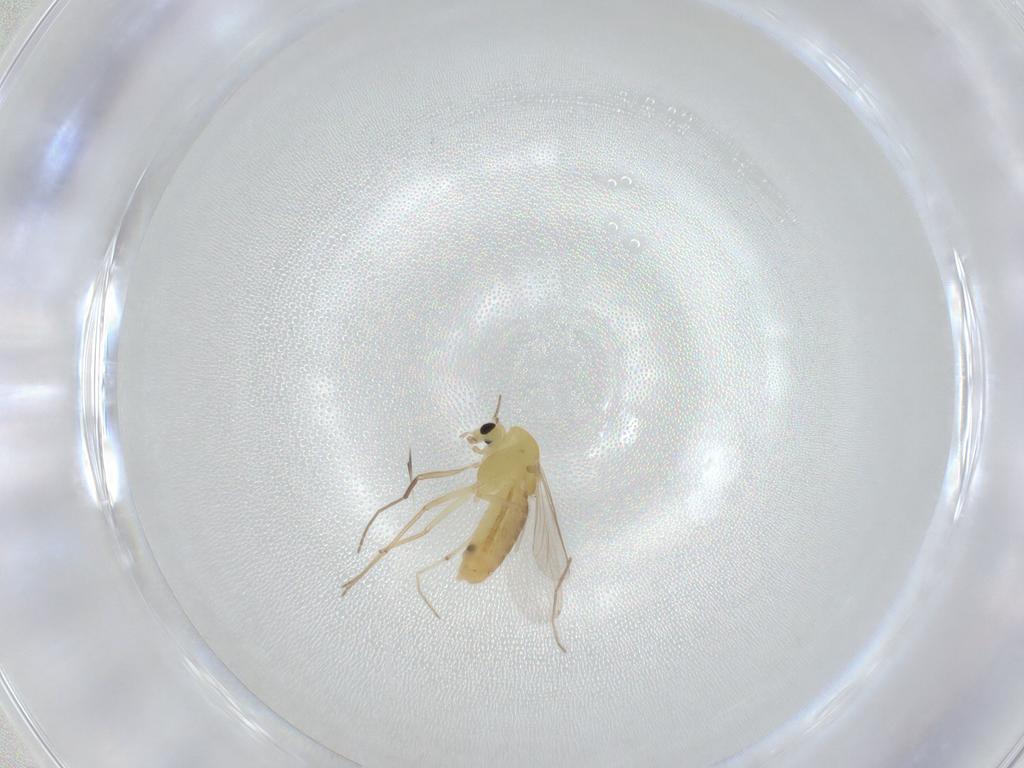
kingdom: Animalia
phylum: Arthropoda
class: Insecta
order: Diptera
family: Chironomidae
